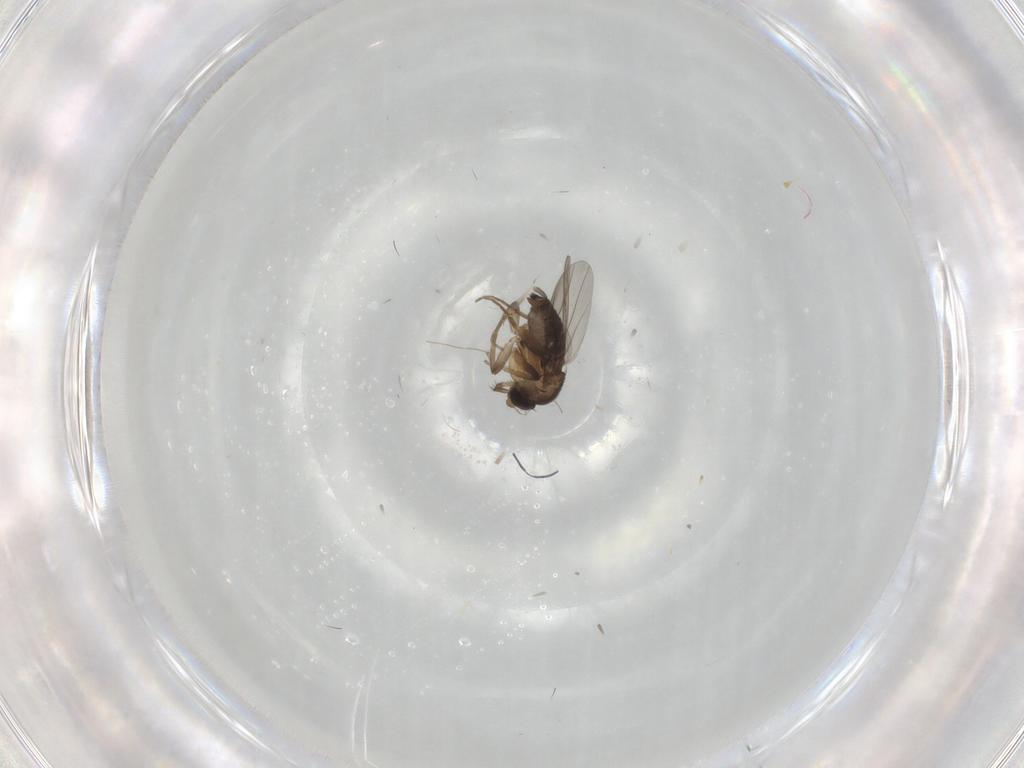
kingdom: Animalia
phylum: Arthropoda
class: Insecta
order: Diptera
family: Phoridae
